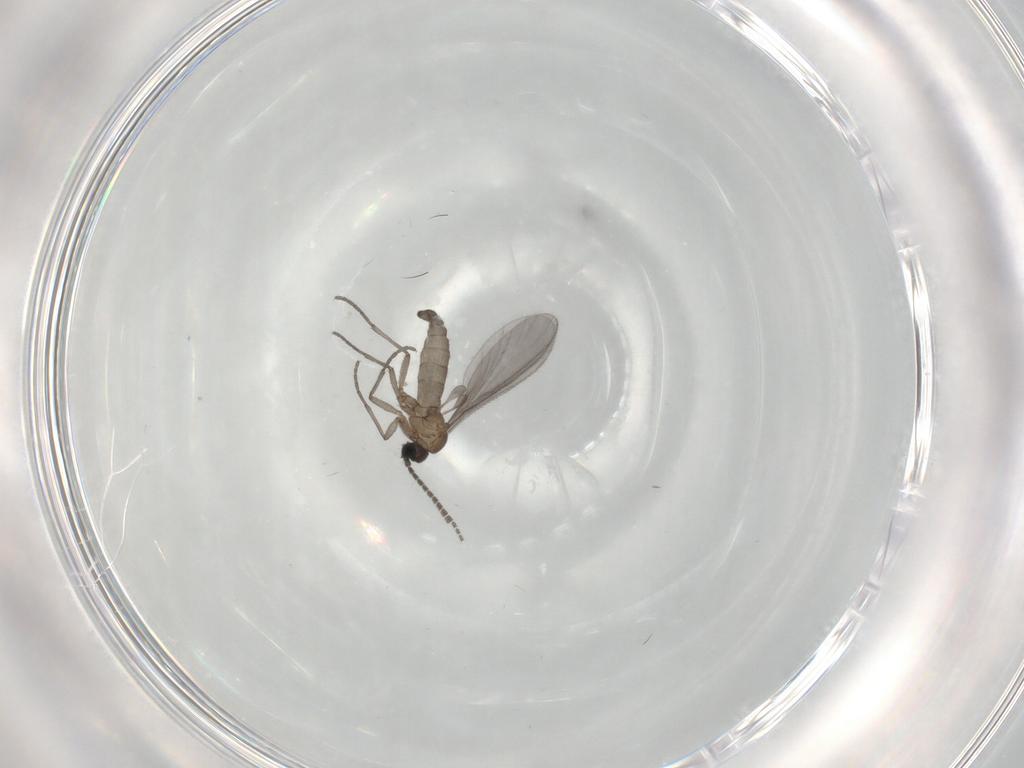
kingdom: Animalia
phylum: Arthropoda
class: Insecta
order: Diptera
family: Sciaridae
